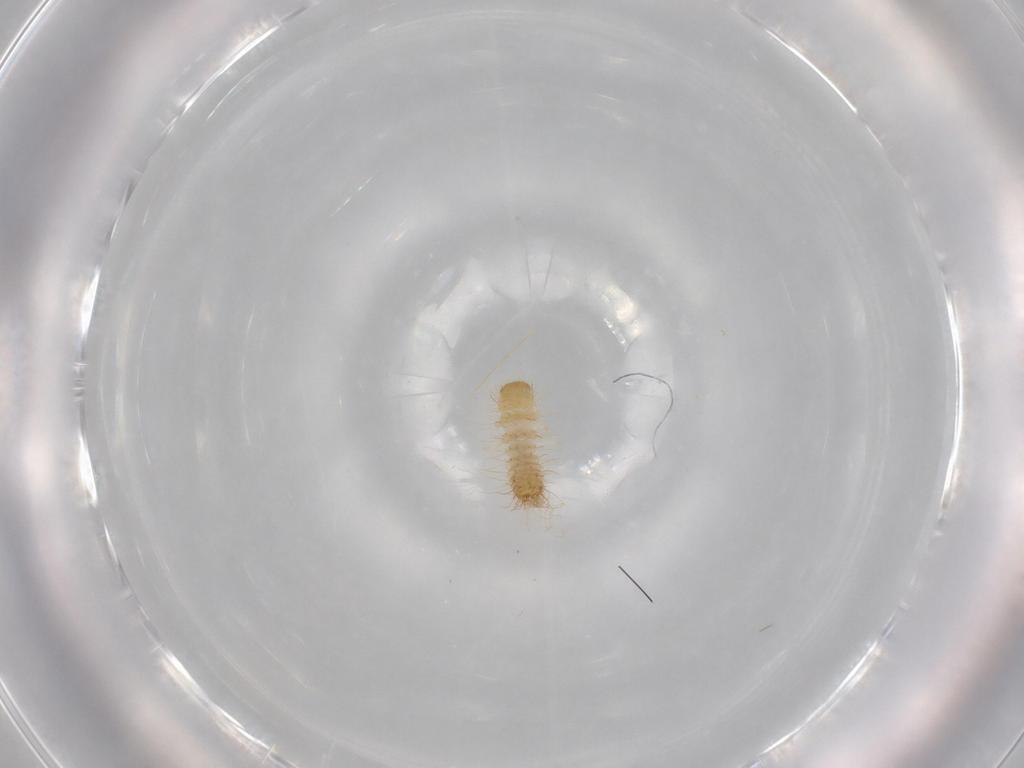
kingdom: Animalia
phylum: Arthropoda
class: Insecta
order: Coleoptera
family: Dermestidae
